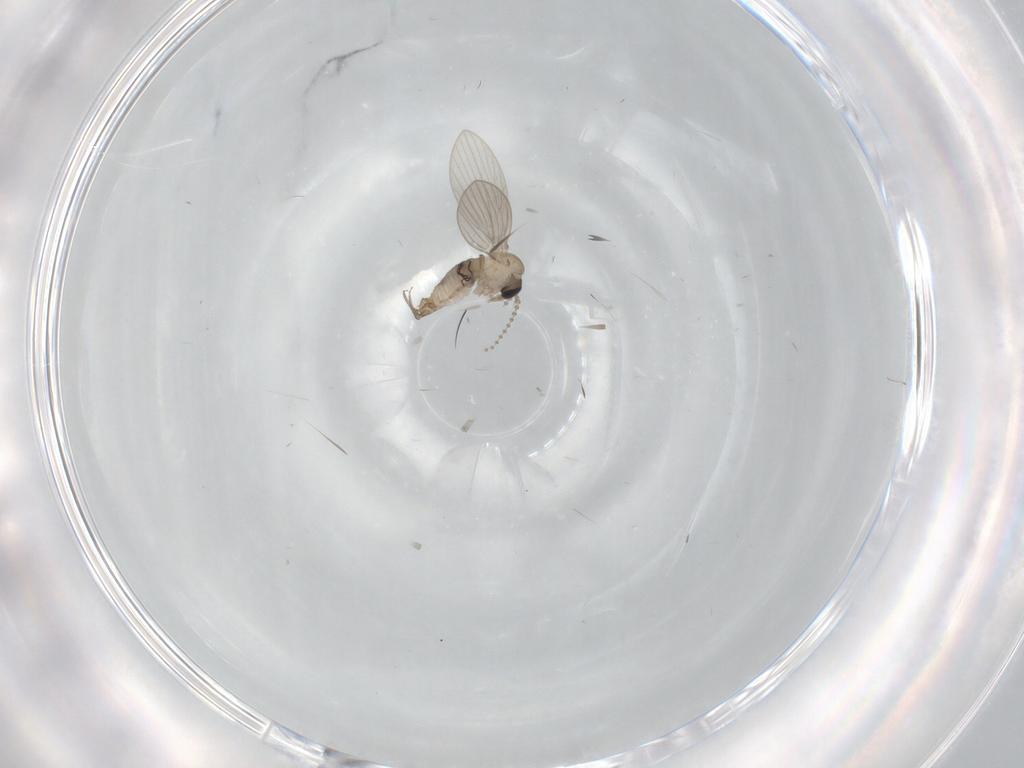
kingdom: Animalia
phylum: Arthropoda
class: Insecta
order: Diptera
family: Psychodidae
